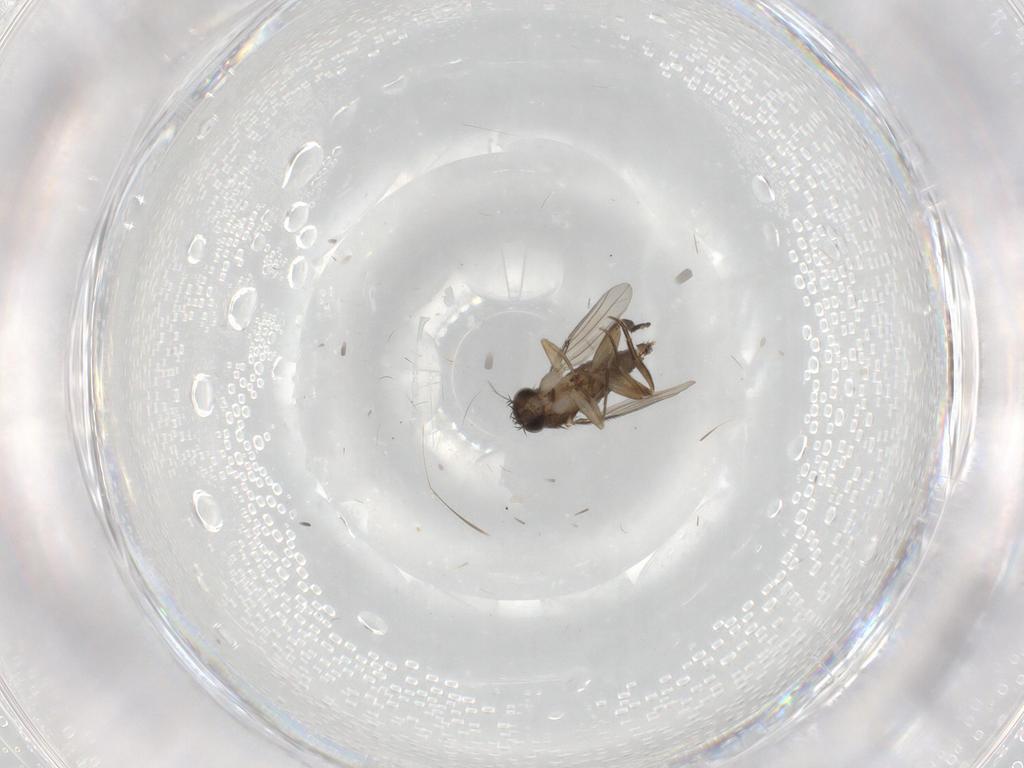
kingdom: Animalia
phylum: Arthropoda
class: Insecta
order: Diptera
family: Phoridae
